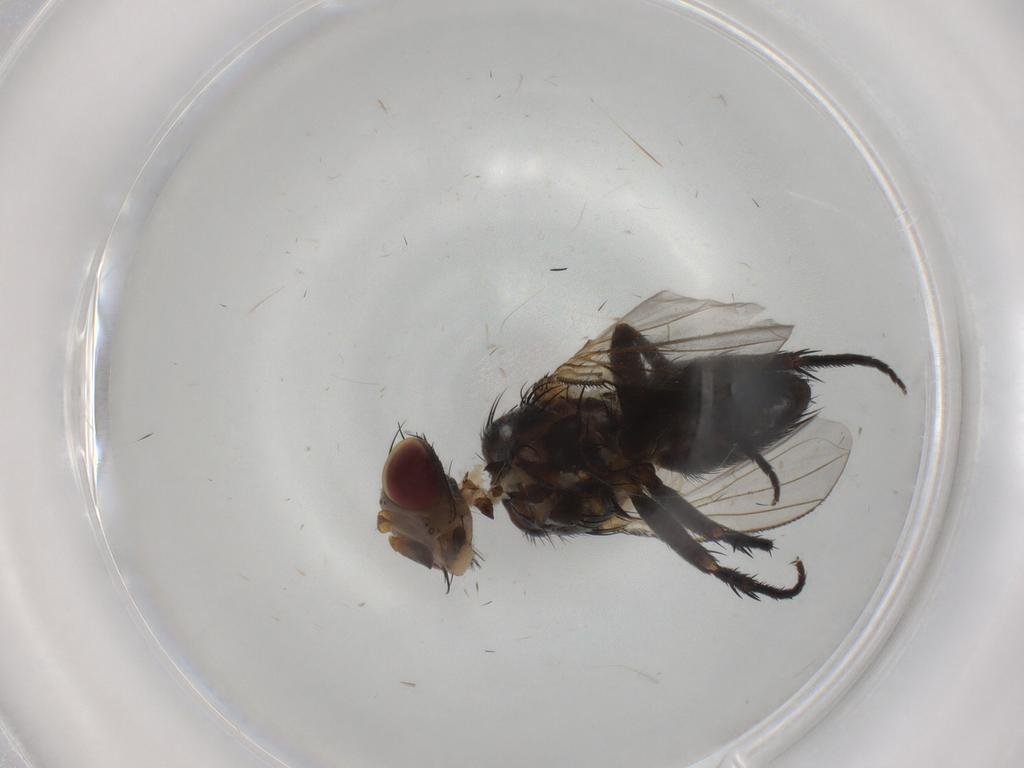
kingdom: Animalia
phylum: Arthropoda
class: Insecta
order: Diptera
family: Tachinidae
